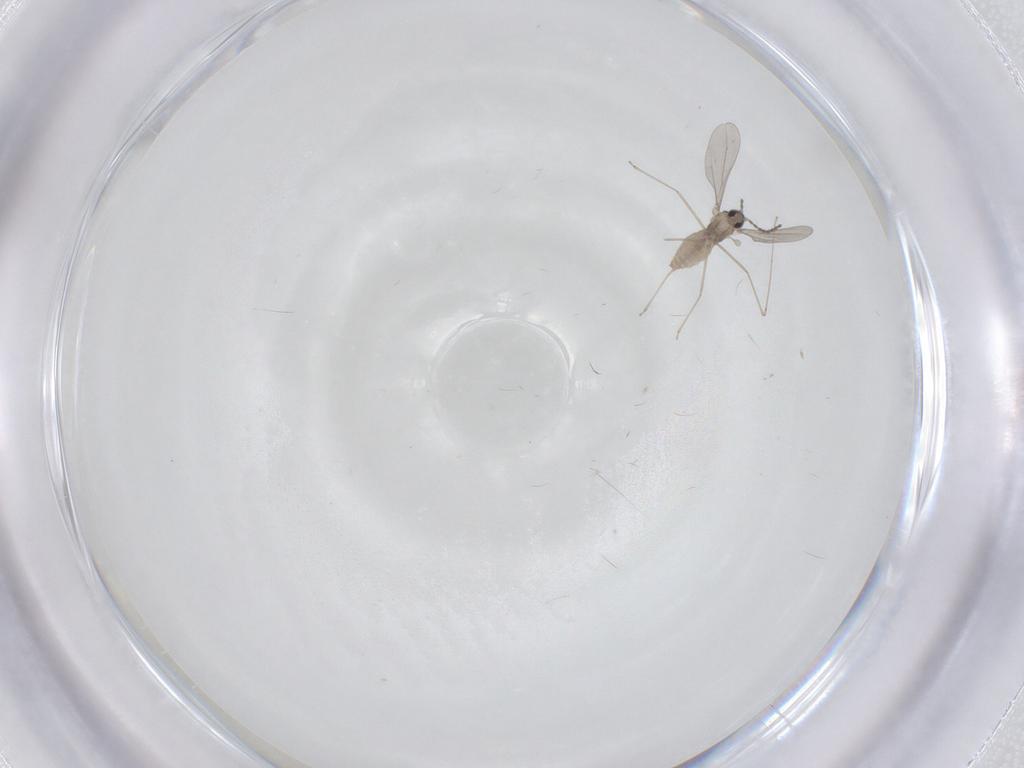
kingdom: Animalia
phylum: Arthropoda
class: Insecta
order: Diptera
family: Cecidomyiidae
